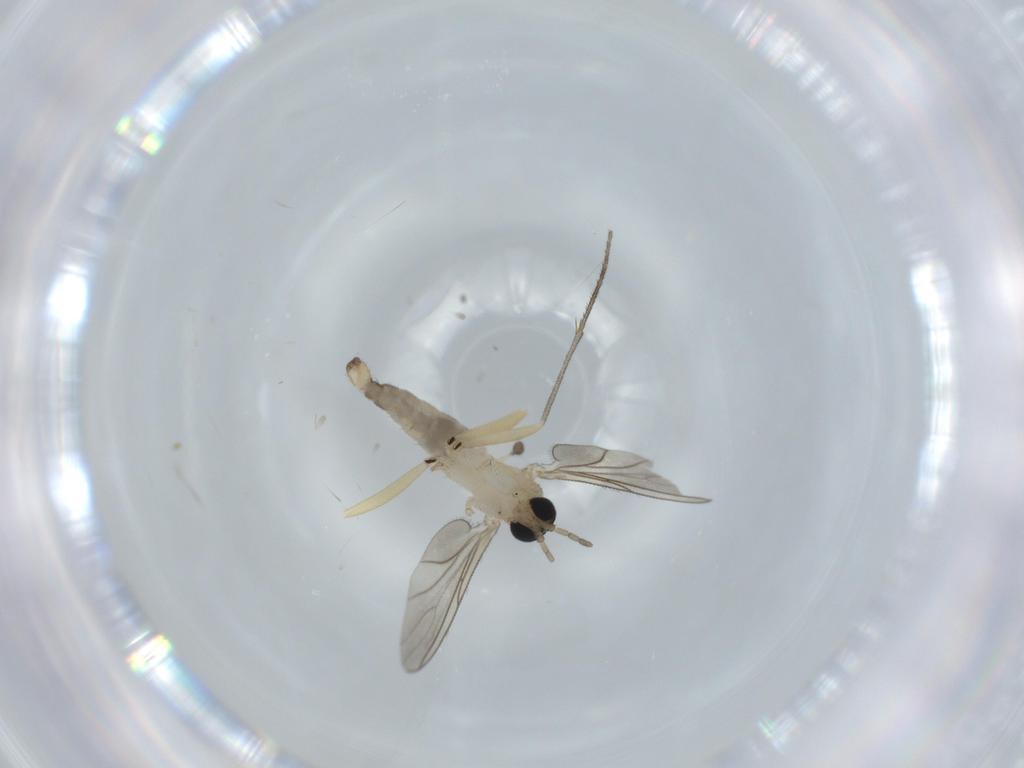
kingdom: Animalia
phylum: Arthropoda
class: Insecta
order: Diptera
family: Sciaridae
